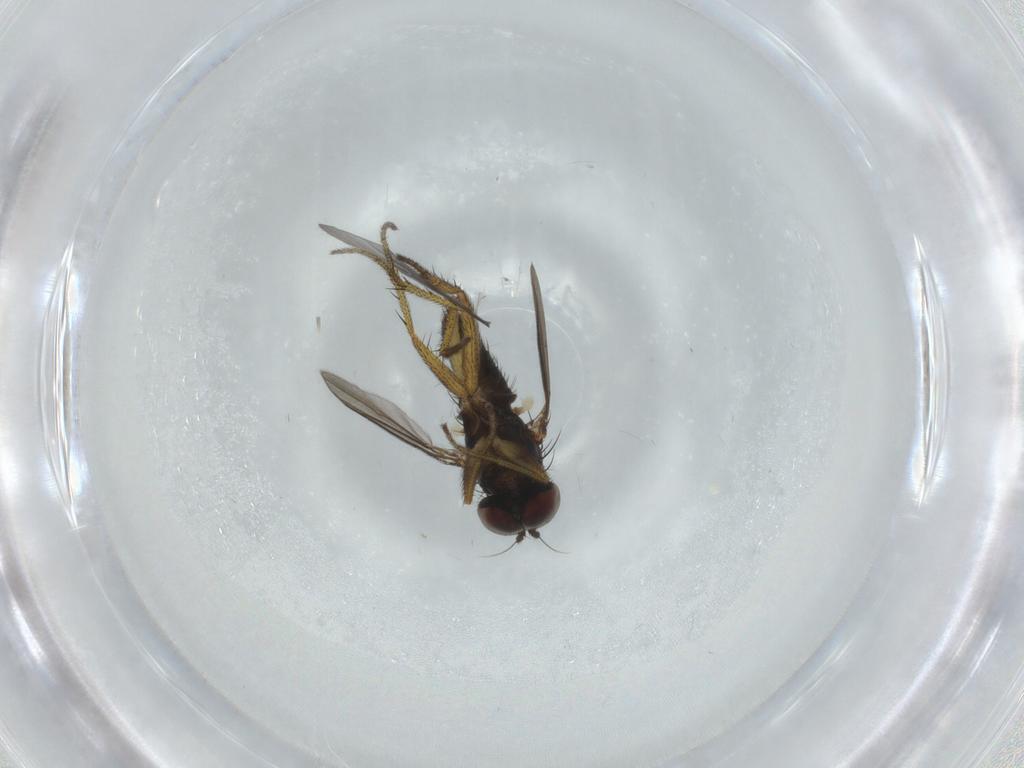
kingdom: Animalia
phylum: Arthropoda
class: Insecta
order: Diptera
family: Sciaridae
